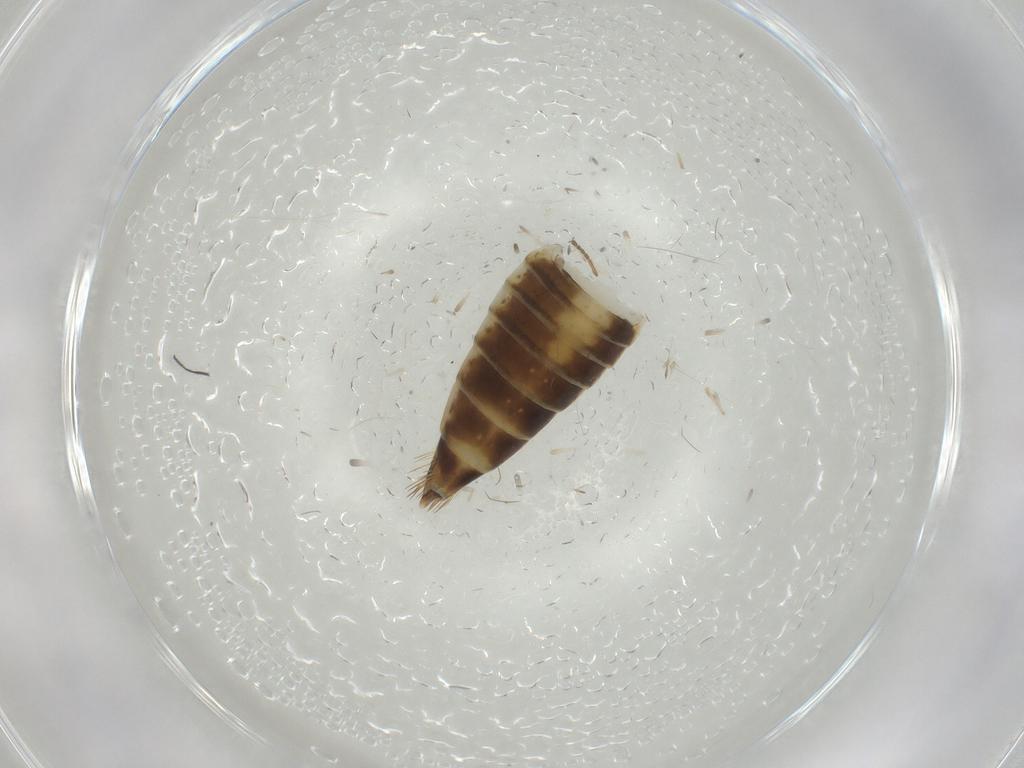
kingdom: Animalia
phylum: Arthropoda
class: Insecta
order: Hemiptera
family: Cicadellidae
